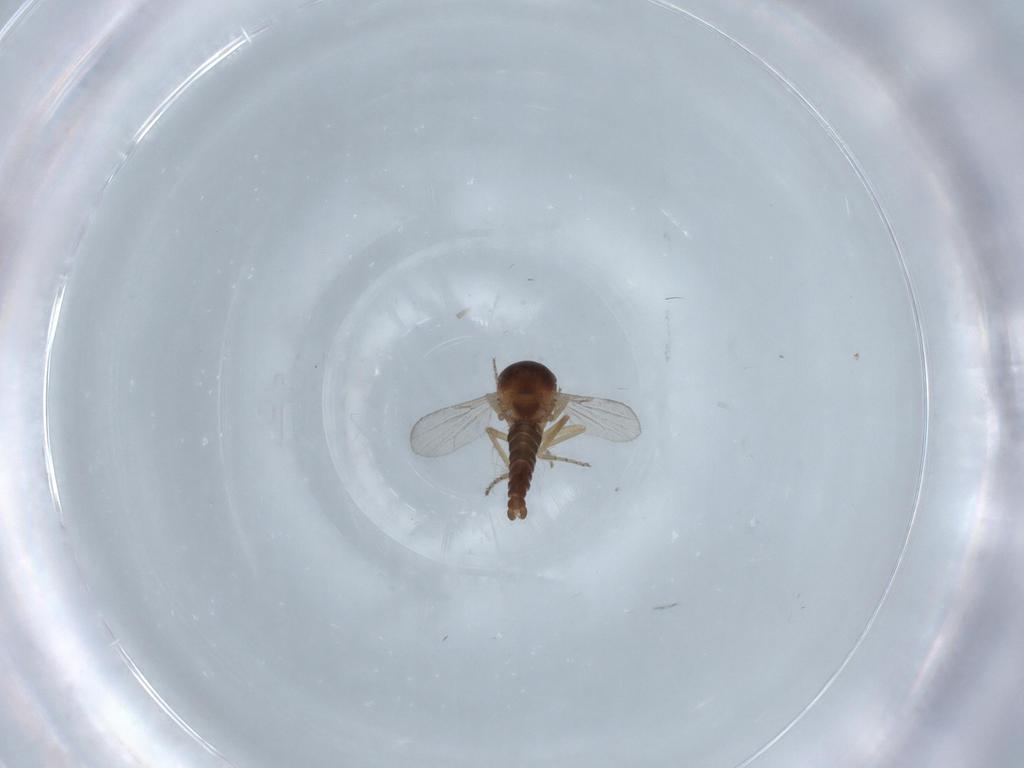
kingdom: Animalia
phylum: Arthropoda
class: Insecta
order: Diptera
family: Ceratopogonidae
